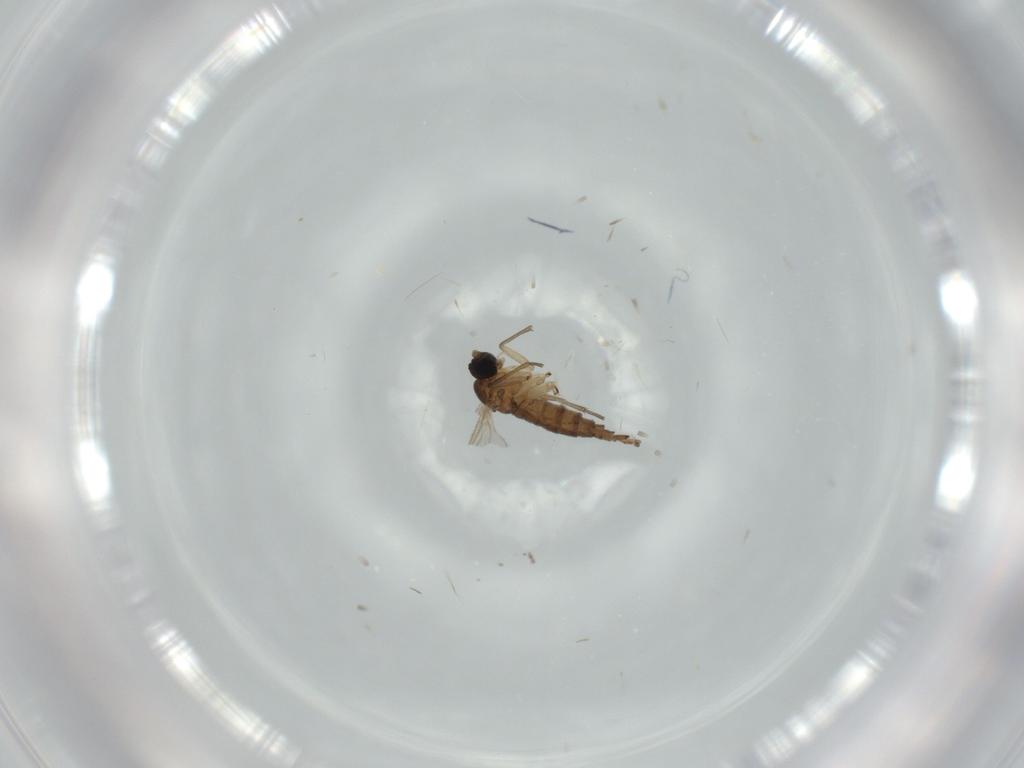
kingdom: Animalia
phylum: Arthropoda
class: Insecta
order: Diptera
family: Sciaridae
